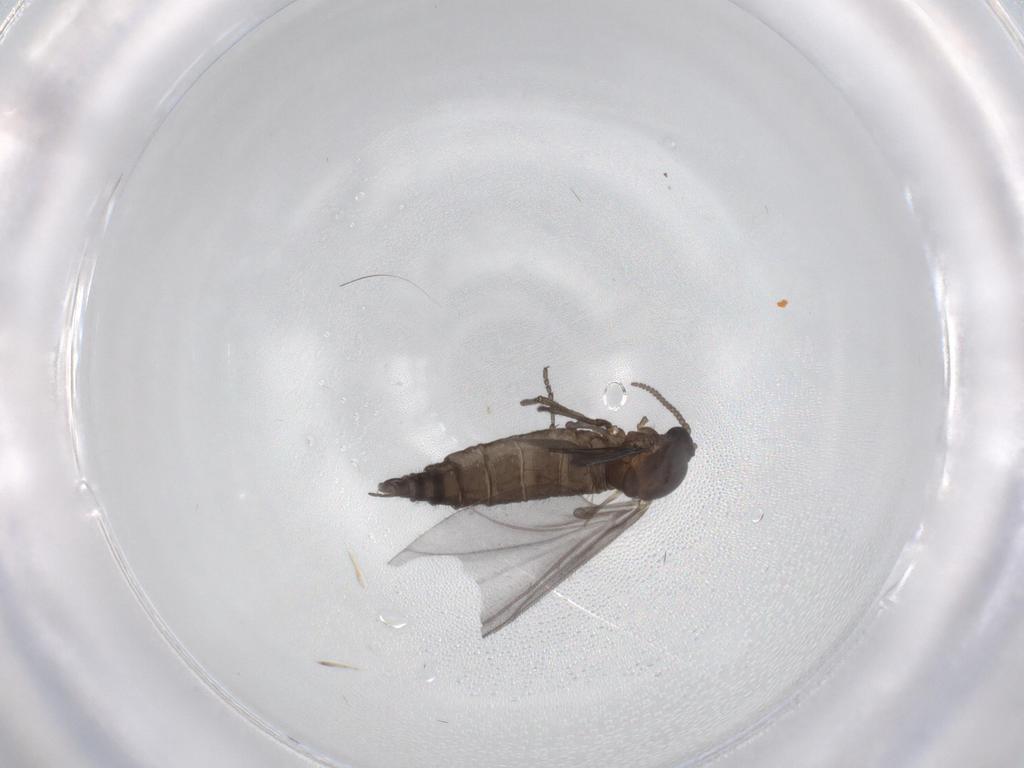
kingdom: Animalia
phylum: Arthropoda
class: Insecta
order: Diptera
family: Sciaridae
